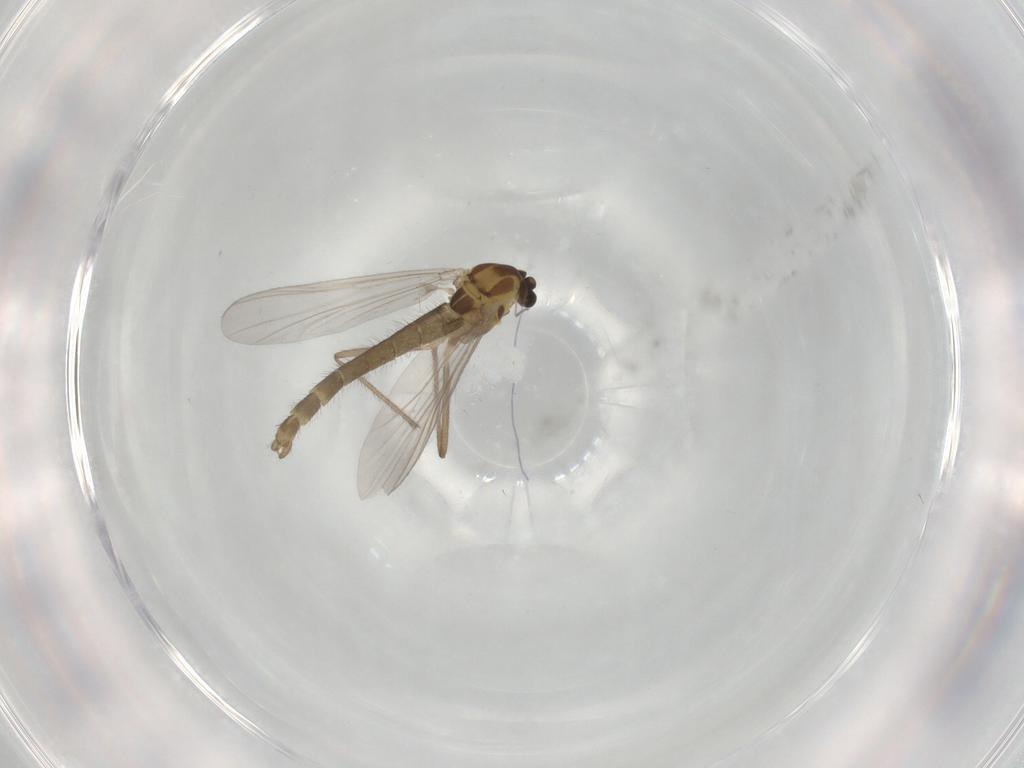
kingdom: Animalia
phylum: Arthropoda
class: Insecta
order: Diptera
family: Chironomidae
